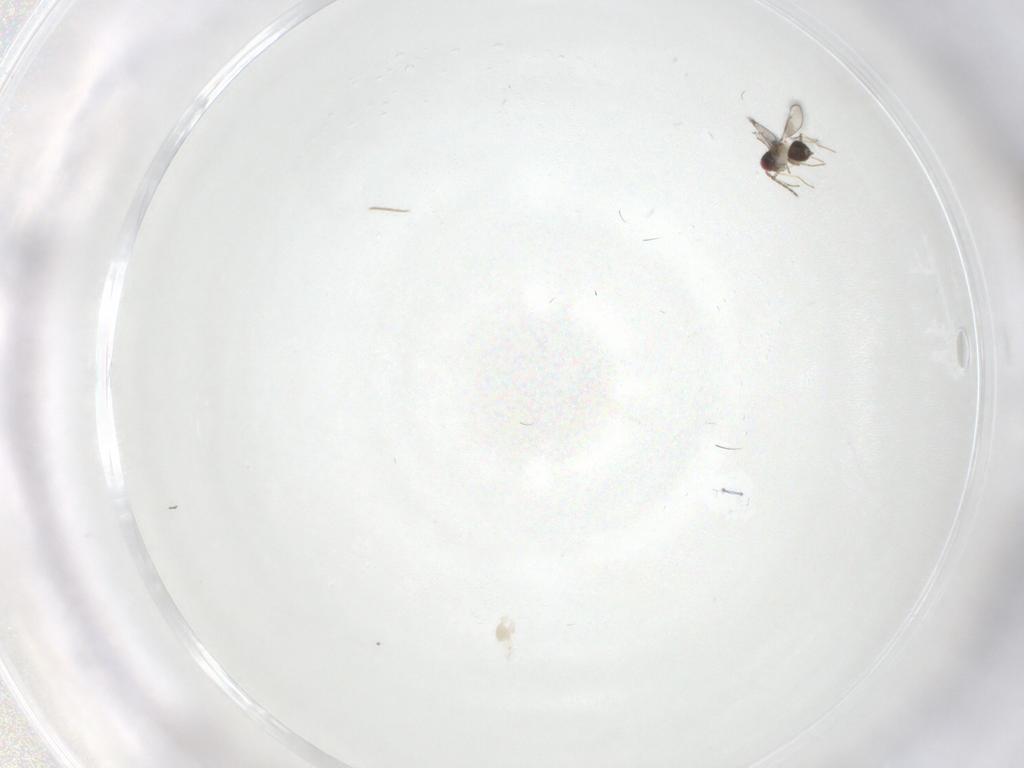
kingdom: Animalia
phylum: Arthropoda
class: Insecta
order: Hymenoptera
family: Eulophidae
